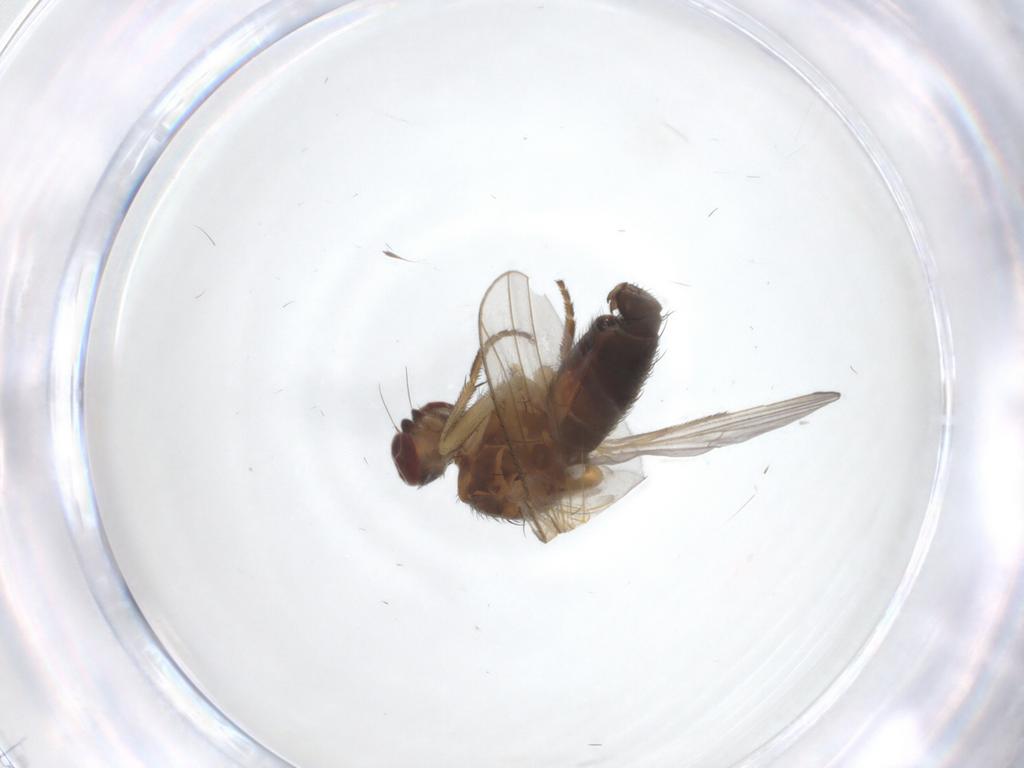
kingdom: Animalia
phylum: Arthropoda
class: Insecta
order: Diptera
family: Heleomyzidae
